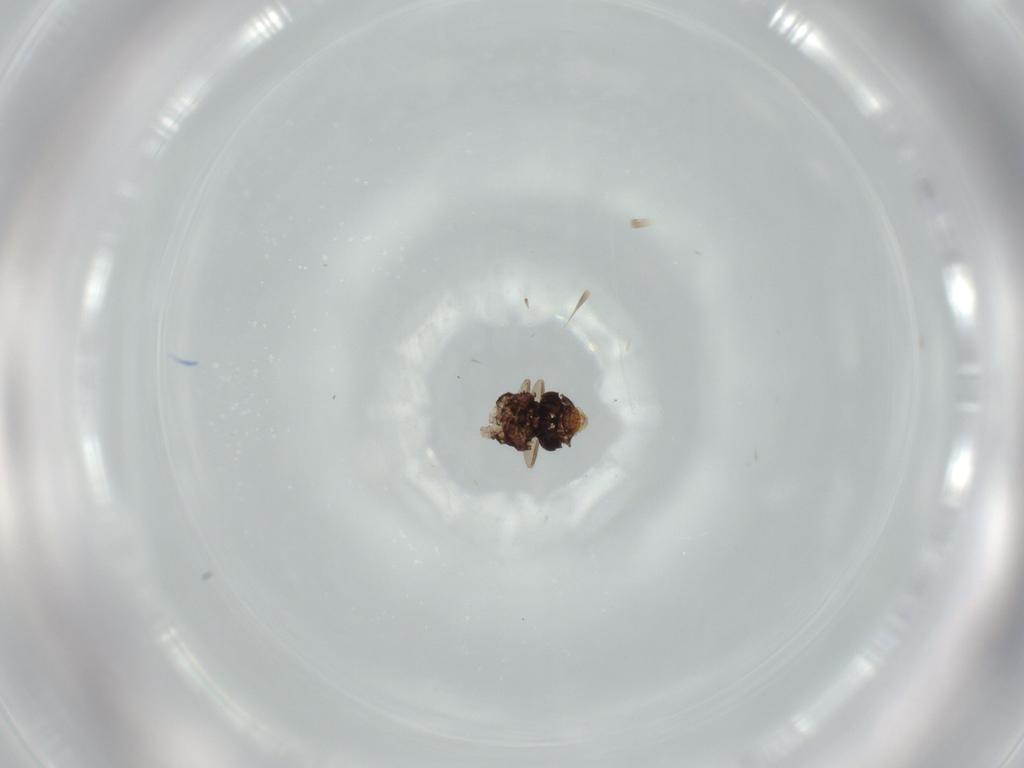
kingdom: Animalia
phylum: Arthropoda
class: Insecta
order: Psocodea
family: Psoquillidae
